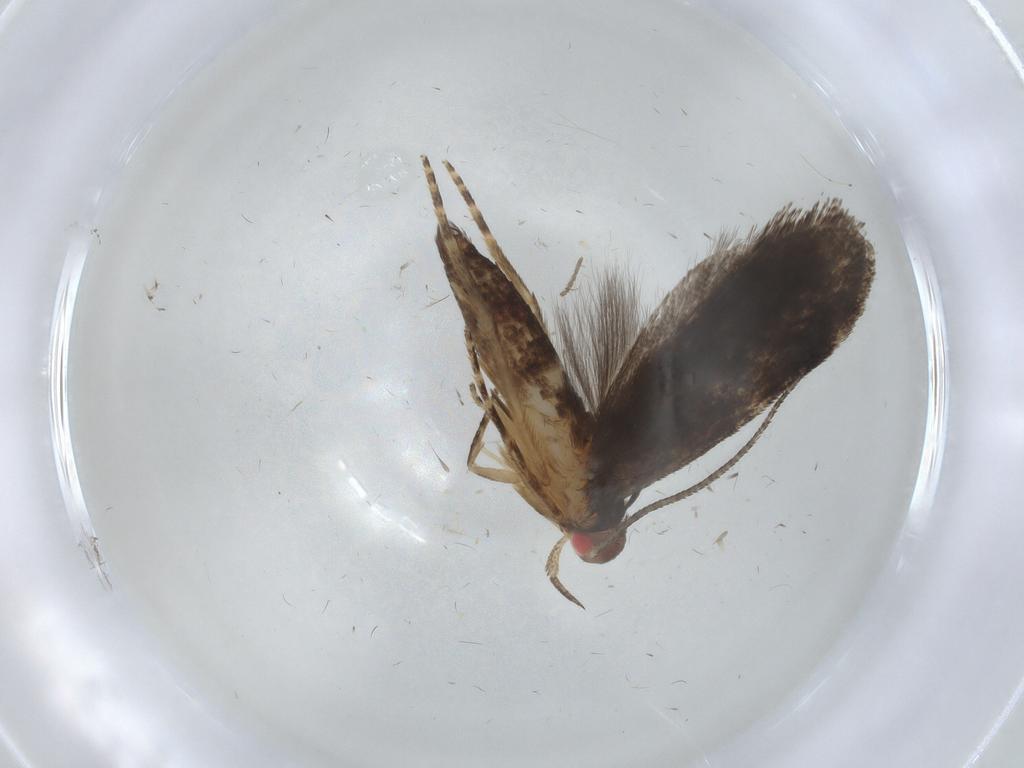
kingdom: Animalia
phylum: Arthropoda
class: Insecta
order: Lepidoptera
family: Gelechiidae
